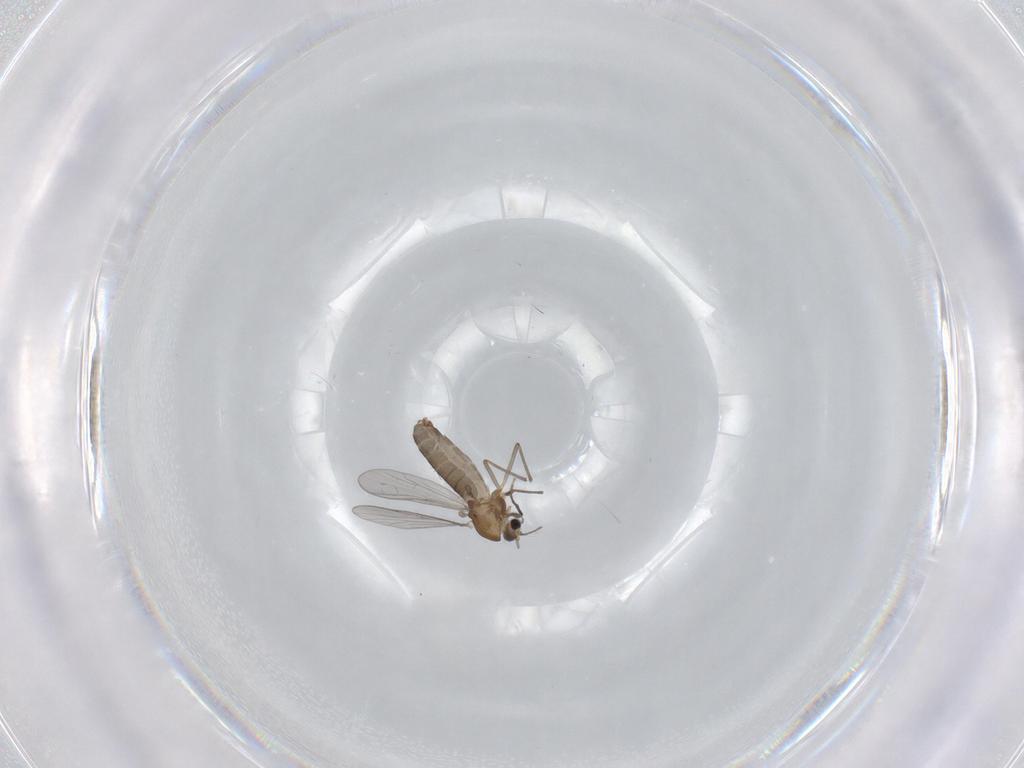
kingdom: Animalia
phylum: Arthropoda
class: Insecta
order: Diptera
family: Chironomidae
